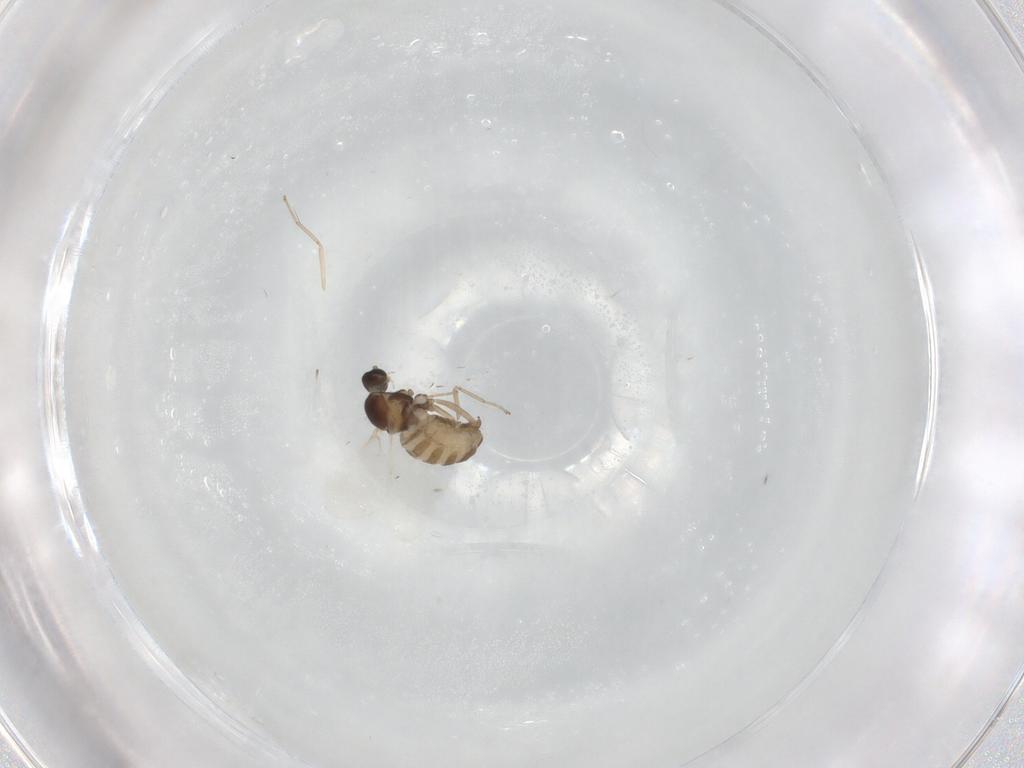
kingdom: Animalia
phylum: Arthropoda
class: Insecta
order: Diptera
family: Cecidomyiidae
